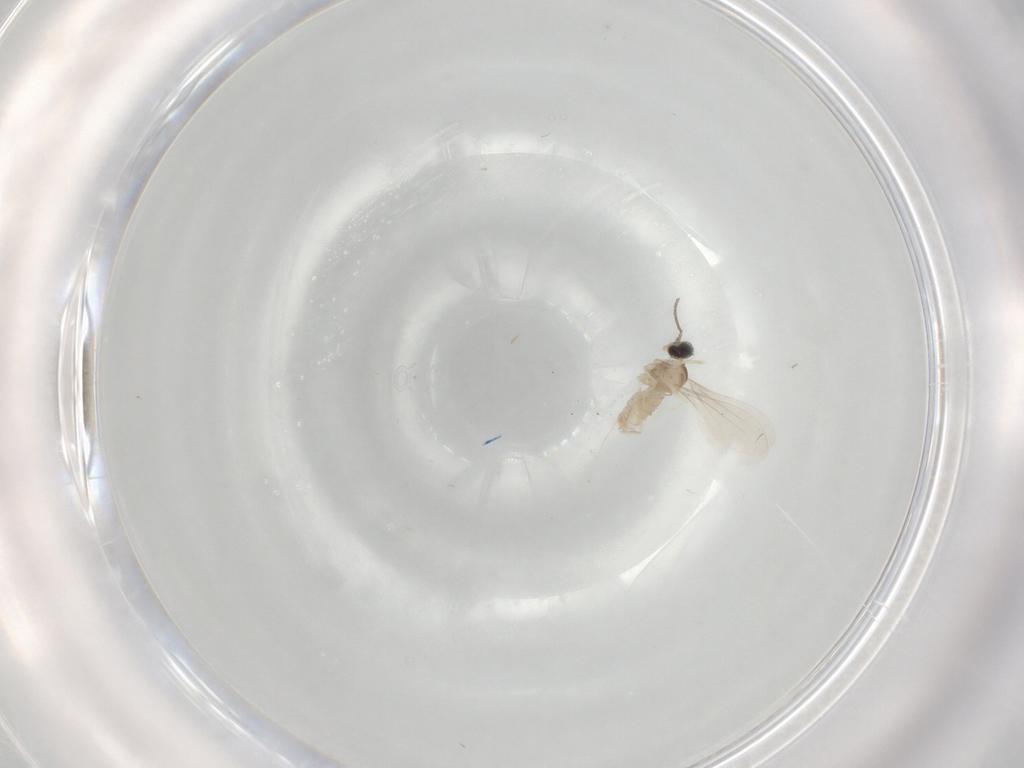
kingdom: Animalia
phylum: Arthropoda
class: Insecta
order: Diptera
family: Cecidomyiidae
